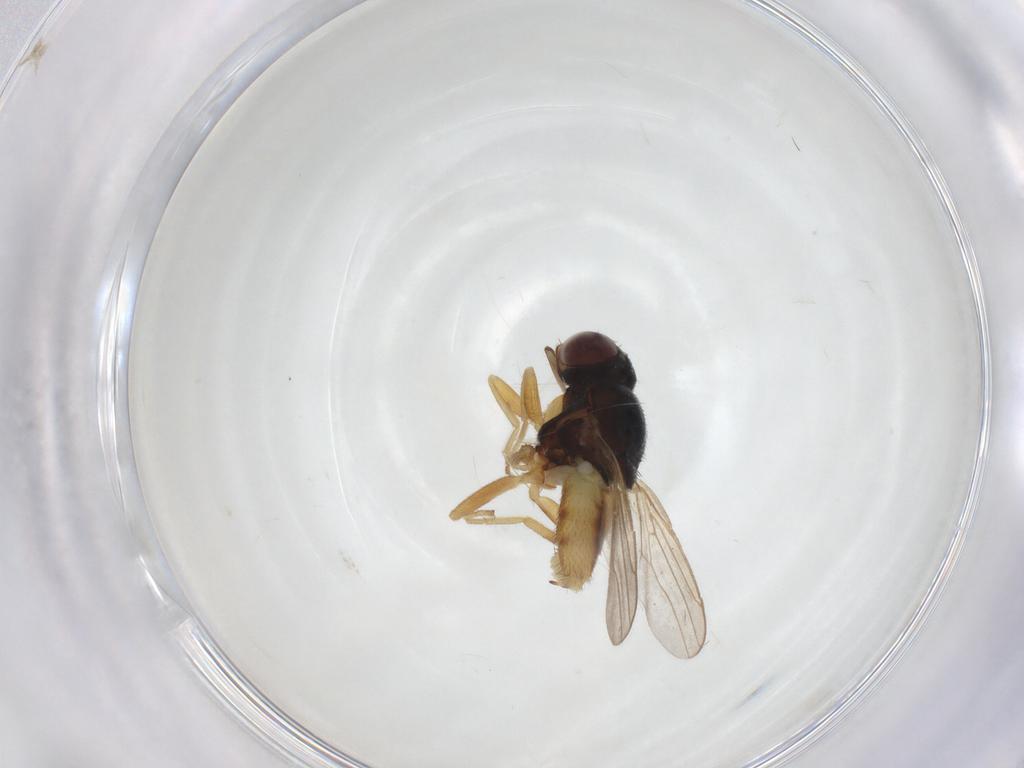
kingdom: Animalia
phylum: Arthropoda
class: Insecta
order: Diptera
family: Chloropidae
